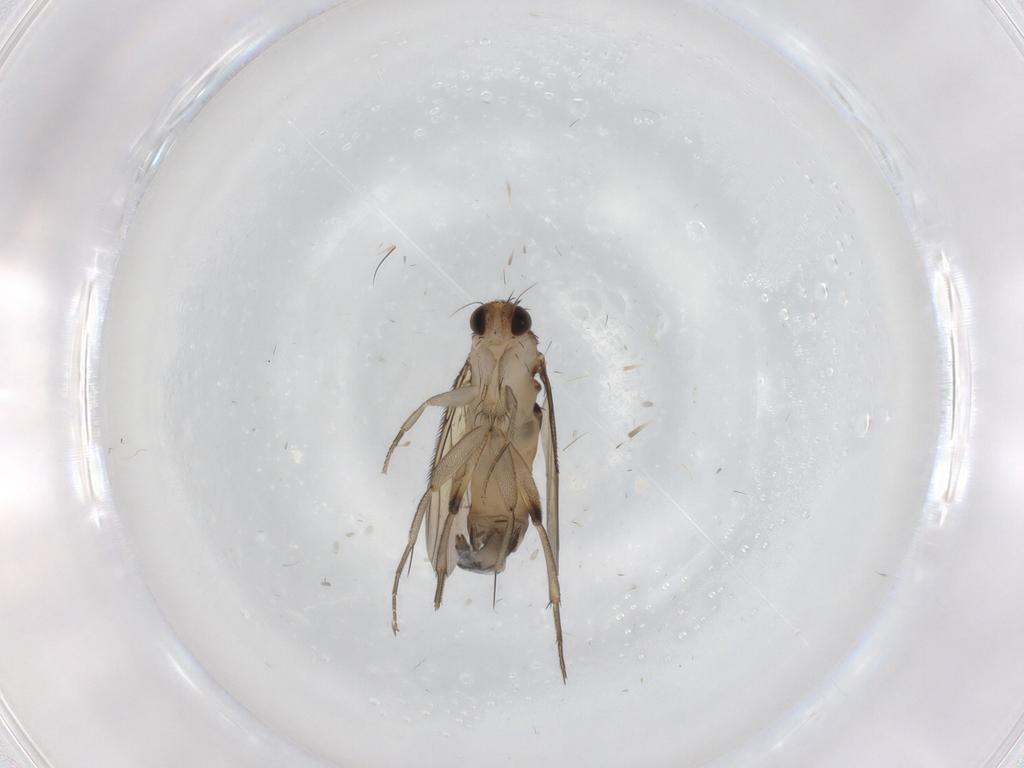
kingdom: Animalia
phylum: Arthropoda
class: Insecta
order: Diptera
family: Phoridae
